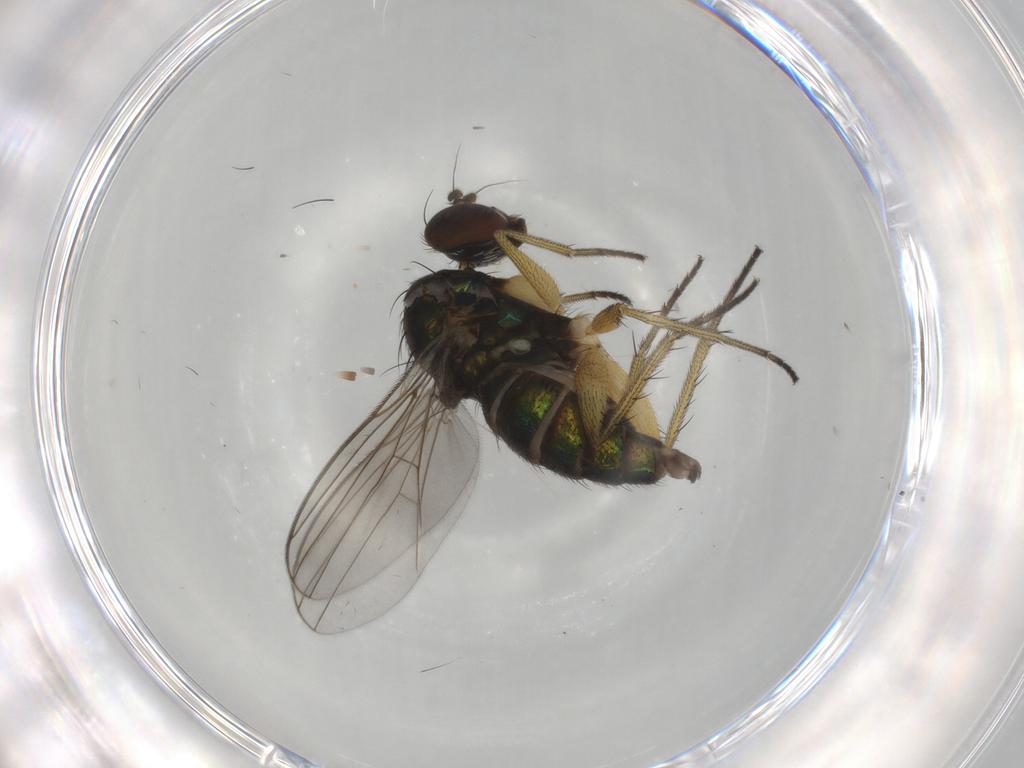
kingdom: Animalia
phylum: Arthropoda
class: Insecta
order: Diptera
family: Dolichopodidae
